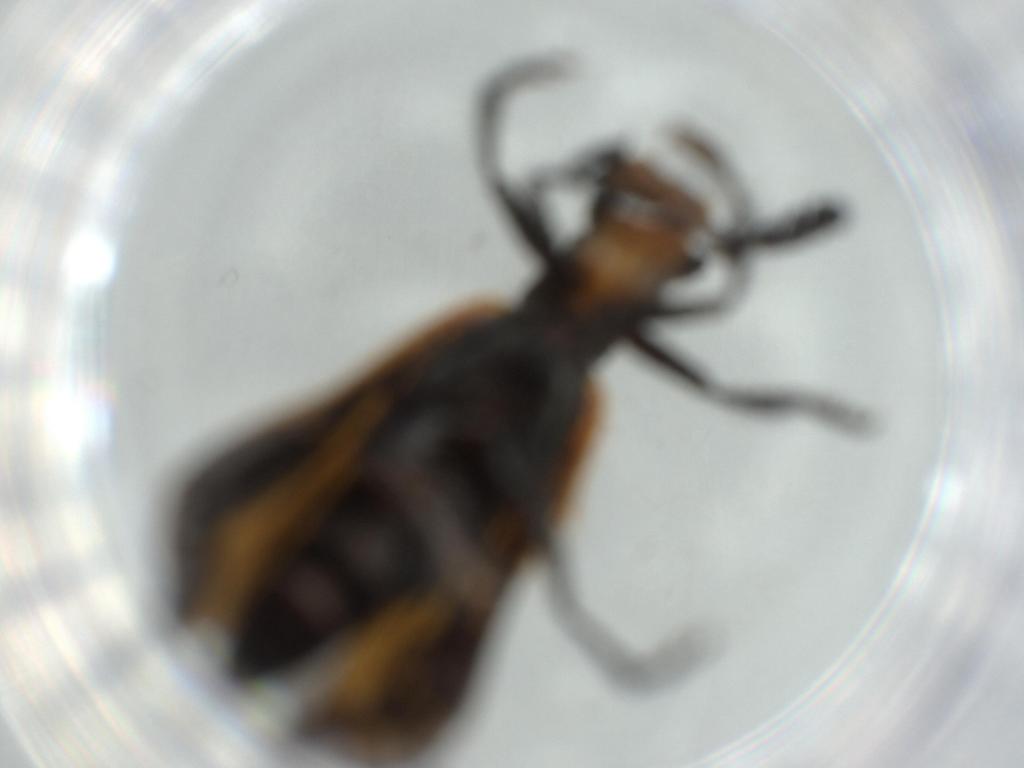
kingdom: Animalia
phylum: Arthropoda
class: Insecta
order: Coleoptera
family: Cleridae
